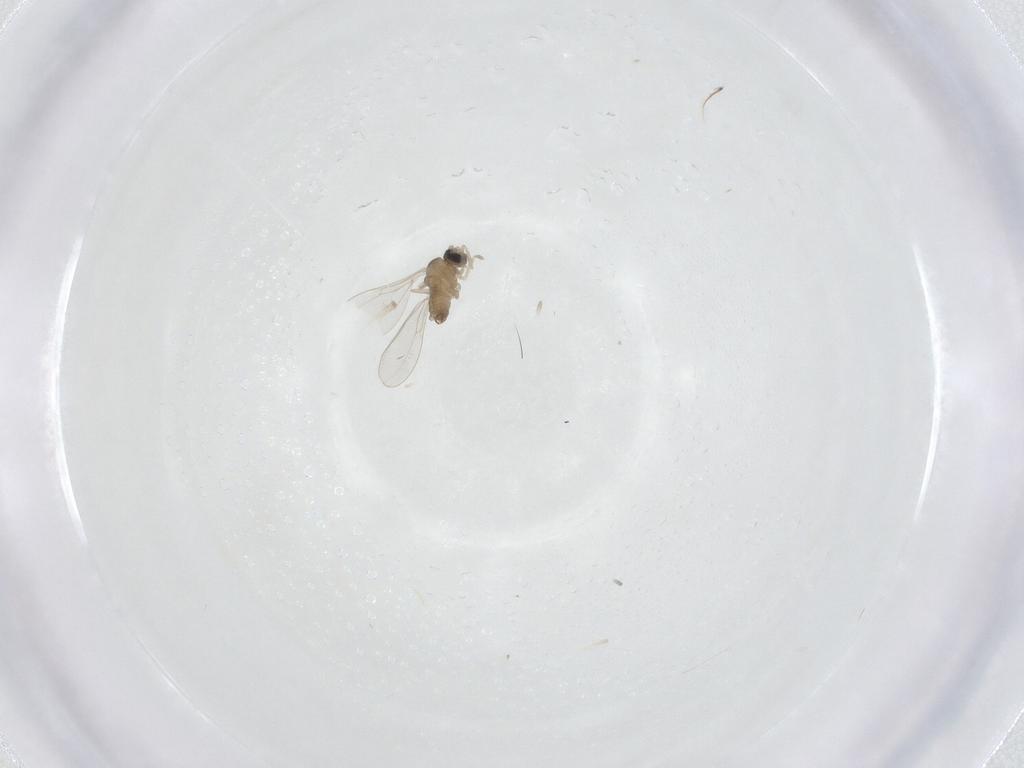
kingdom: Animalia
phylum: Arthropoda
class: Insecta
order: Diptera
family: Cecidomyiidae
